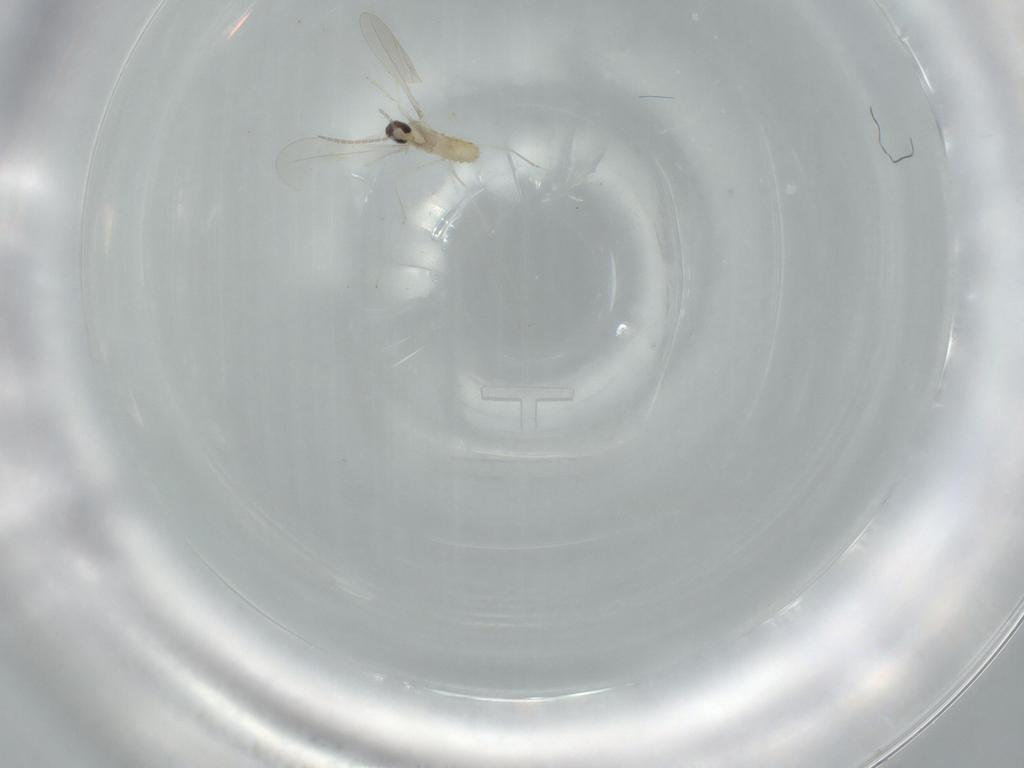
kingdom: Animalia
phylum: Arthropoda
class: Insecta
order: Diptera
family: Cecidomyiidae
